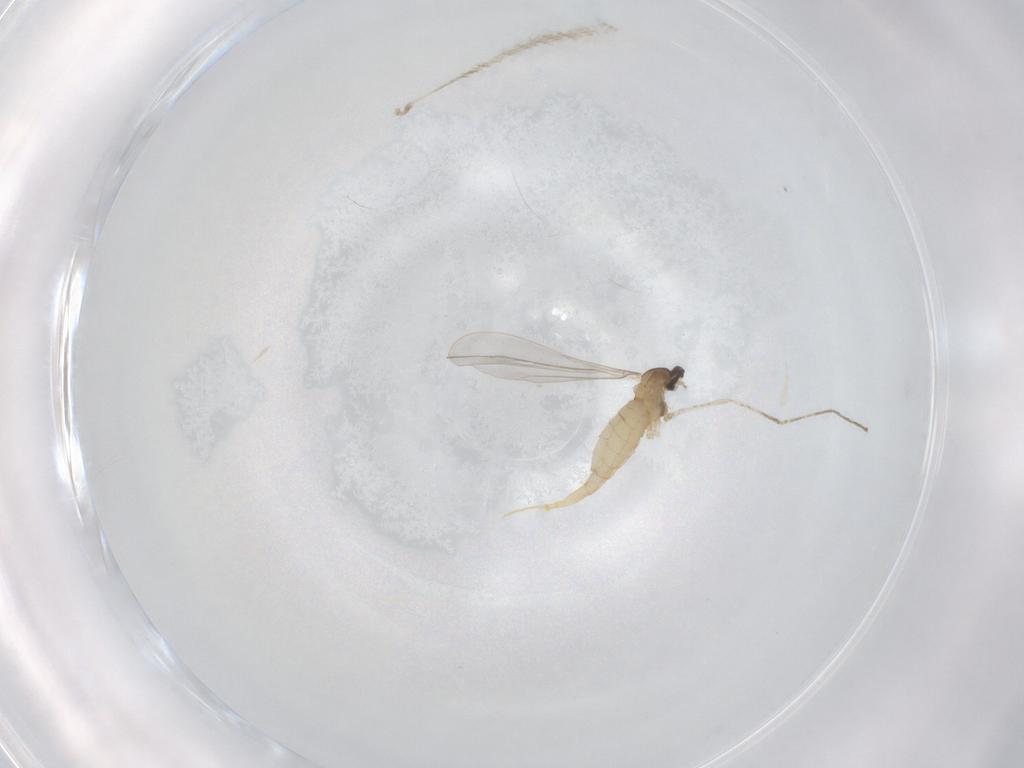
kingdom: Animalia
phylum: Arthropoda
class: Insecta
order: Diptera
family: Cecidomyiidae
